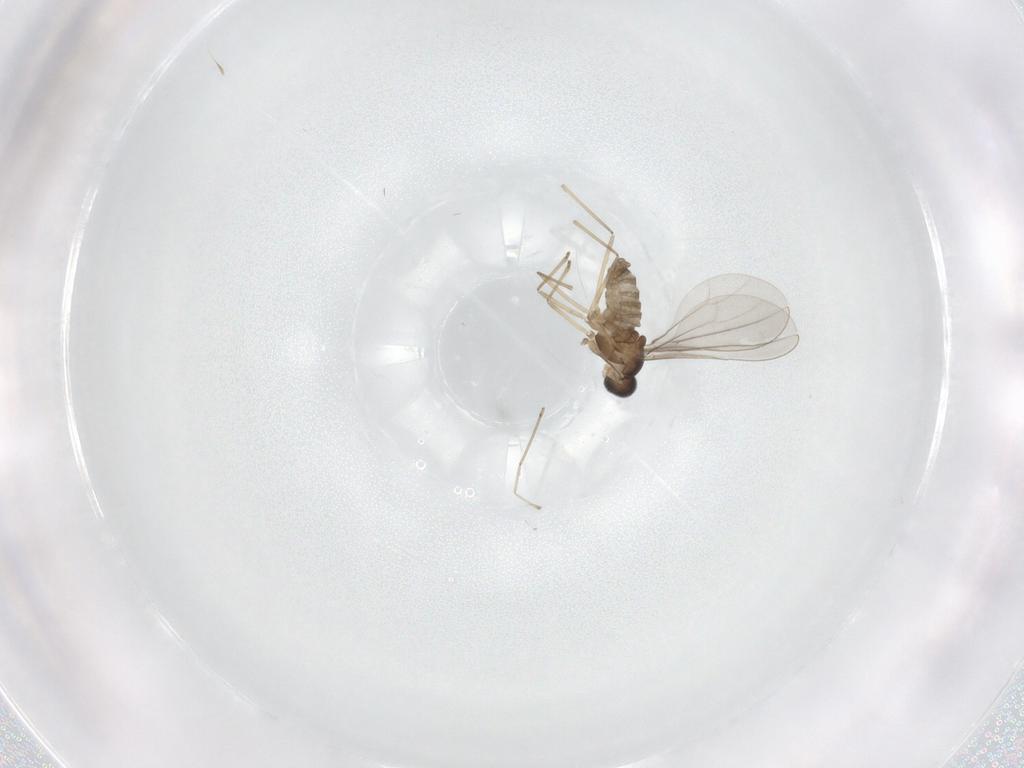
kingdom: Animalia
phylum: Arthropoda
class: Insecta
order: Diptera
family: Cecidomyiidae
